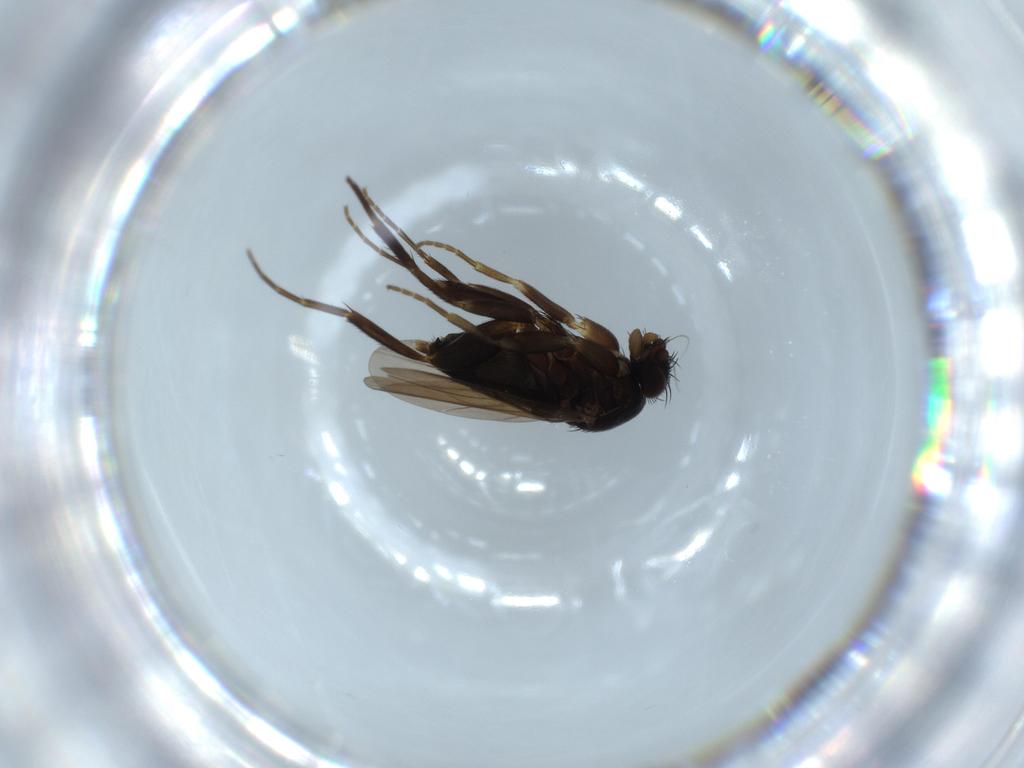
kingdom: Animalia
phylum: Arthropoda
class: Insecta
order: Diptera
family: Phoridae
